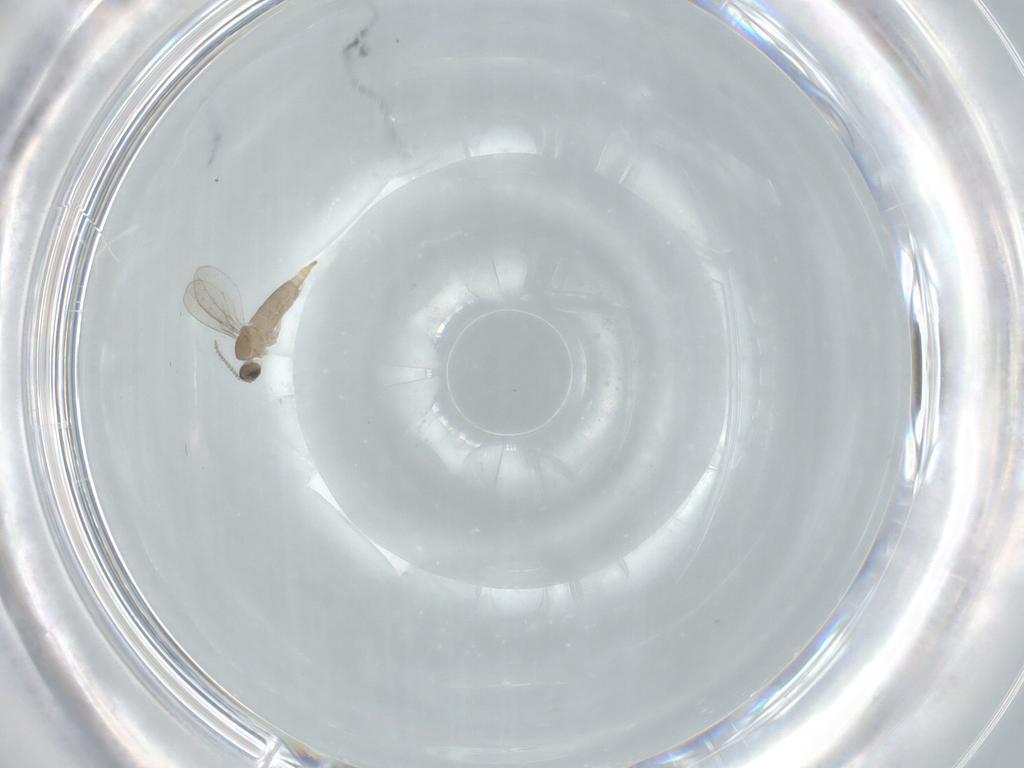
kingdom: Animalia
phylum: Arthropoda
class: Insecta
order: Diptera
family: Cecidomyiidae
